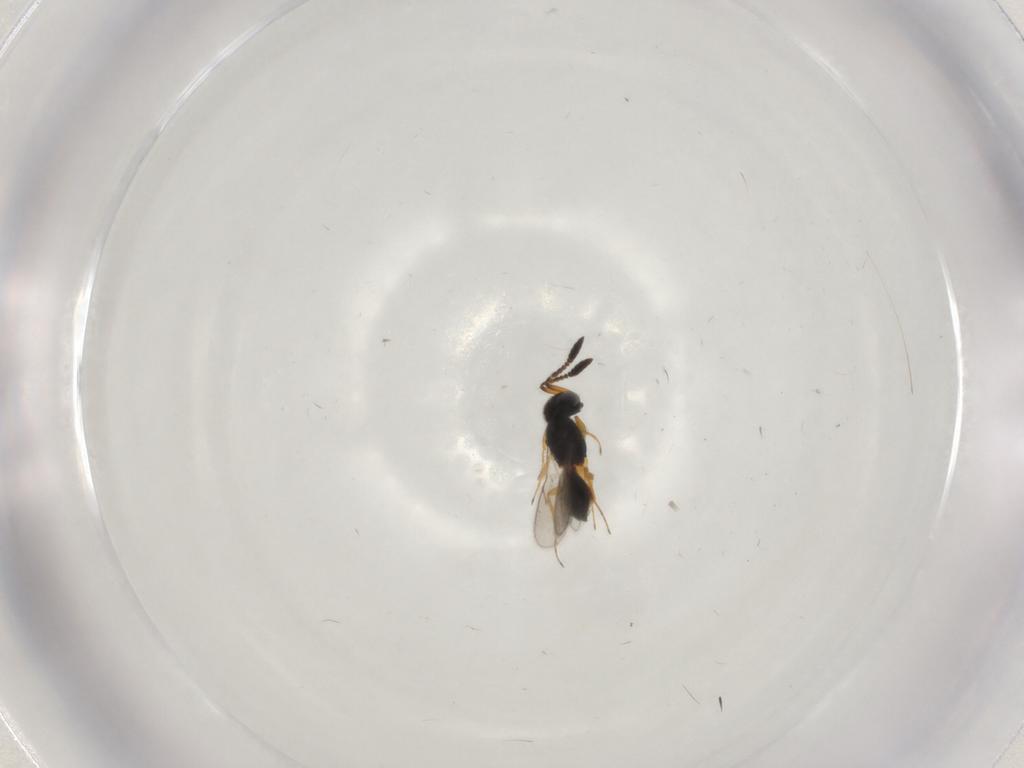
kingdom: Animalia
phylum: Arthropoda
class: Insecta
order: Hymenoptera
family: Scelionidae
